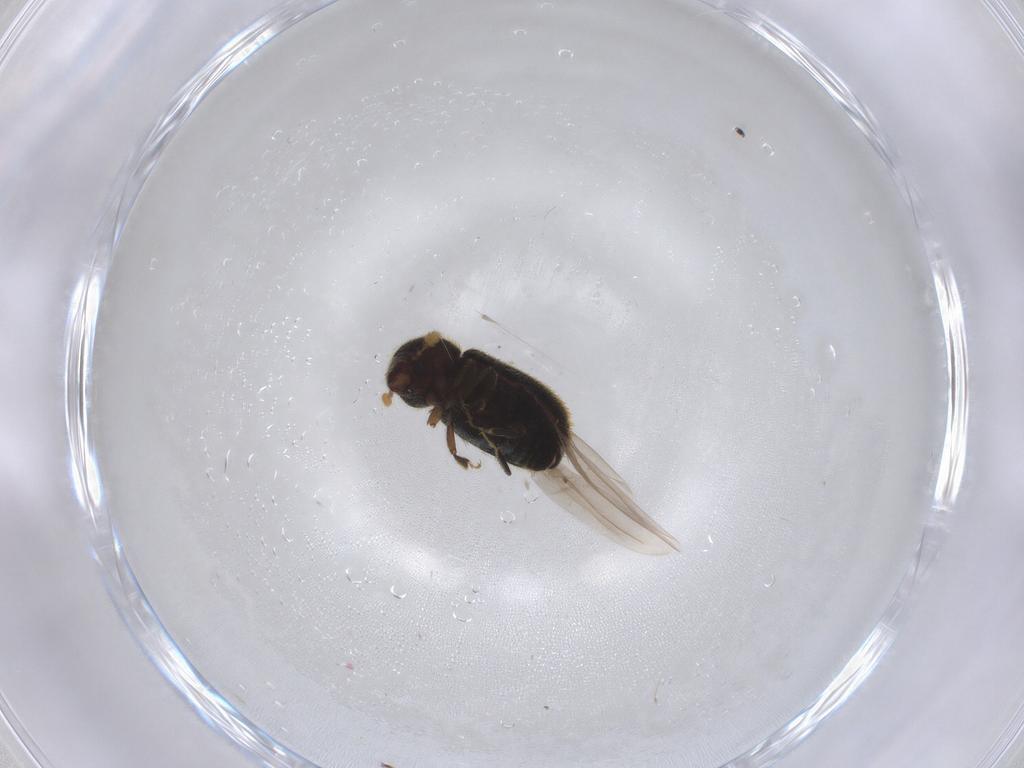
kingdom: Animalia
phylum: Arthropoda
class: Insecta
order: Coleoptera
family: Curculionidae
